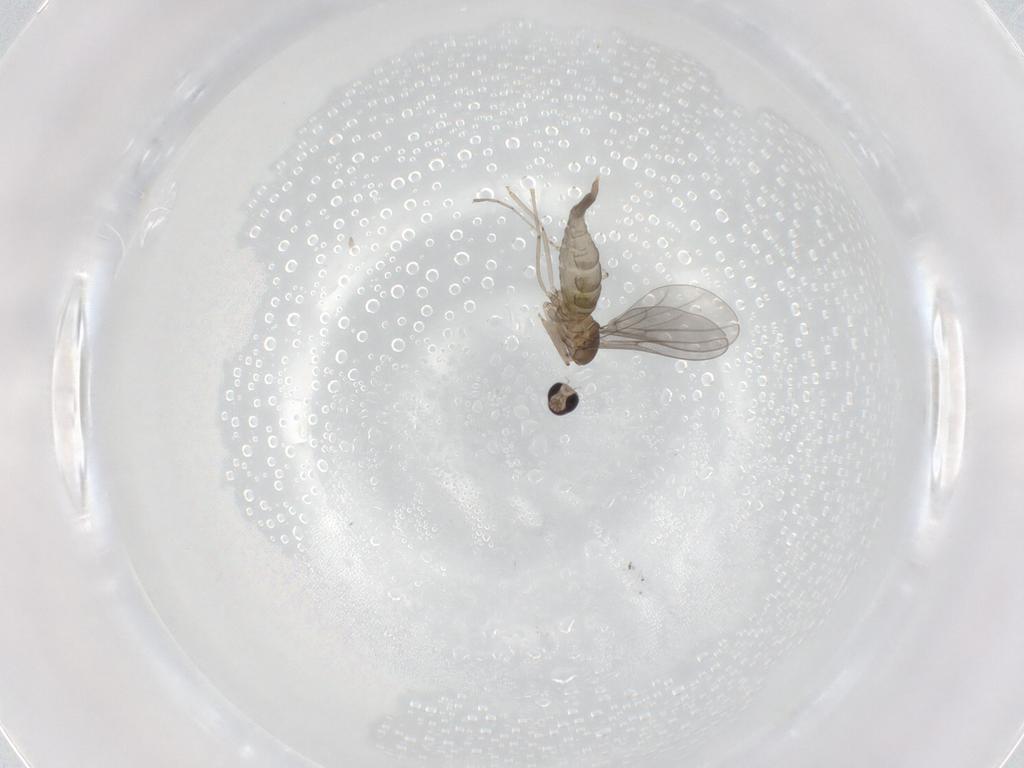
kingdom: Animalia
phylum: Arthropoda
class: Insecta
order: Diptera
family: Cecidomyiidae
